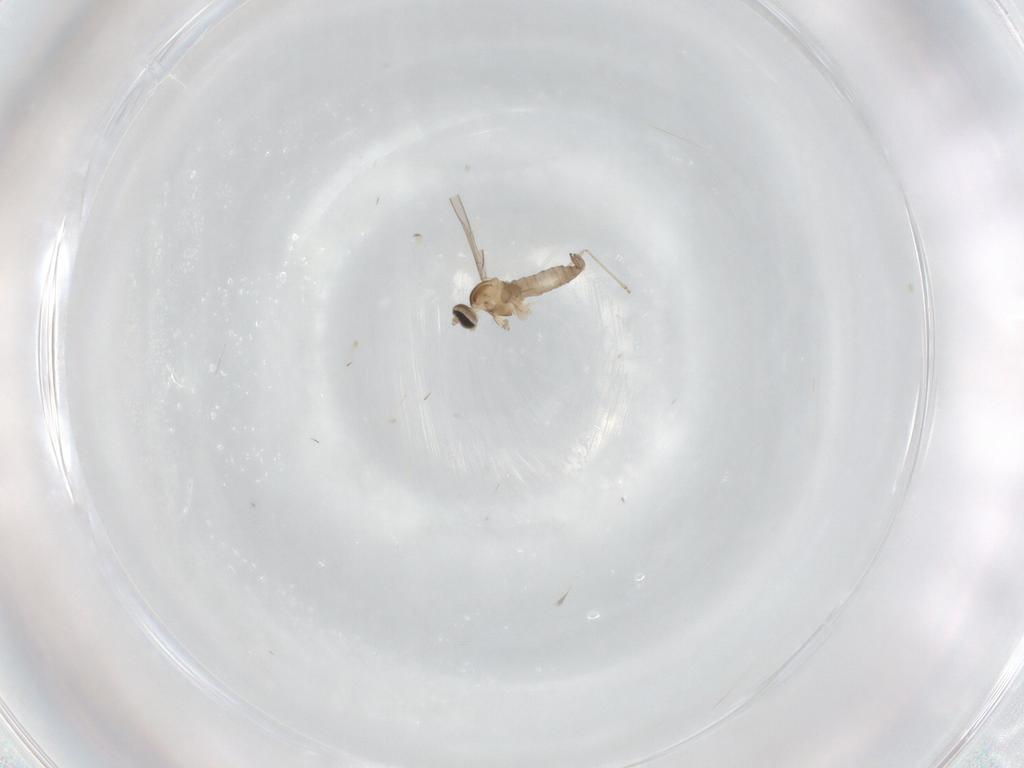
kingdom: Animalia
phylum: Arthropoda
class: Insecta
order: Diptera
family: Cecidomyiidae
